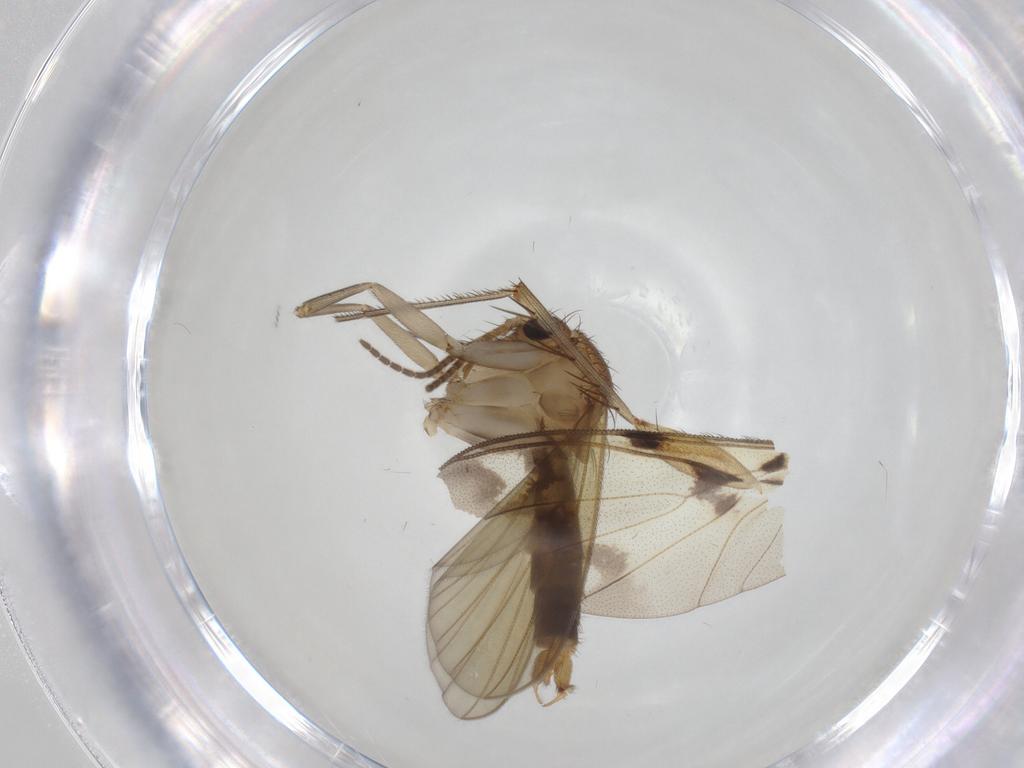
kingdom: Animalia
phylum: Arthropoda
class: Insecta
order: Diptera
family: Sciaridae
